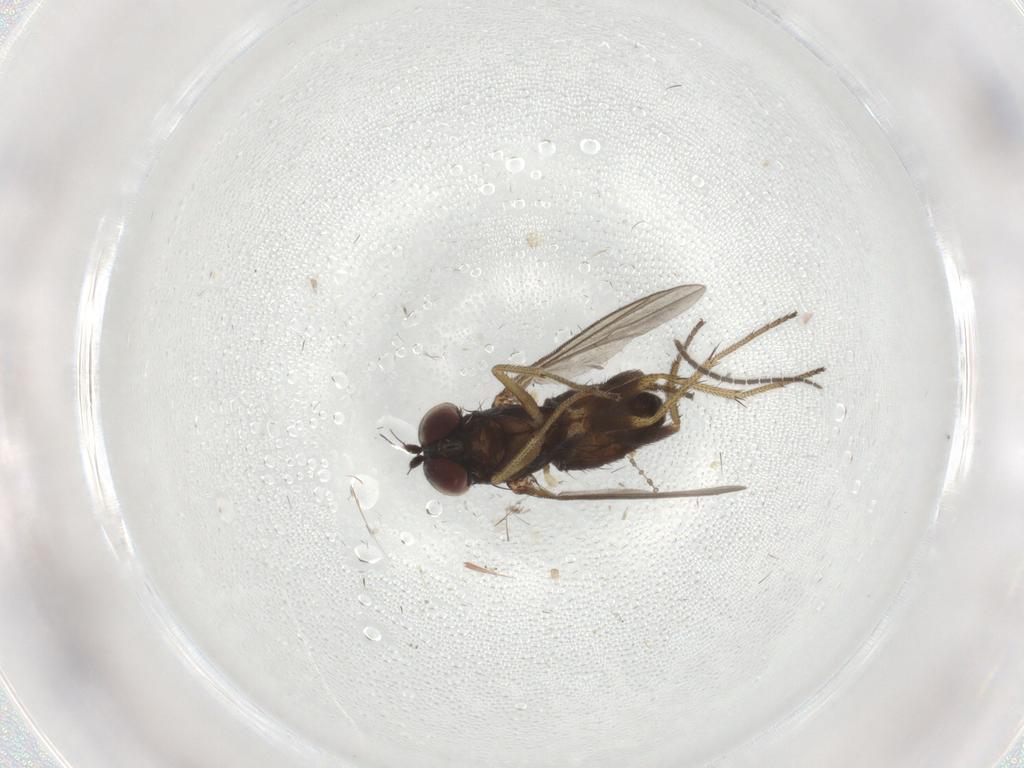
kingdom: Animalia
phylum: Arthropoda
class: Insecta
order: Diptera
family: Sciaridae
